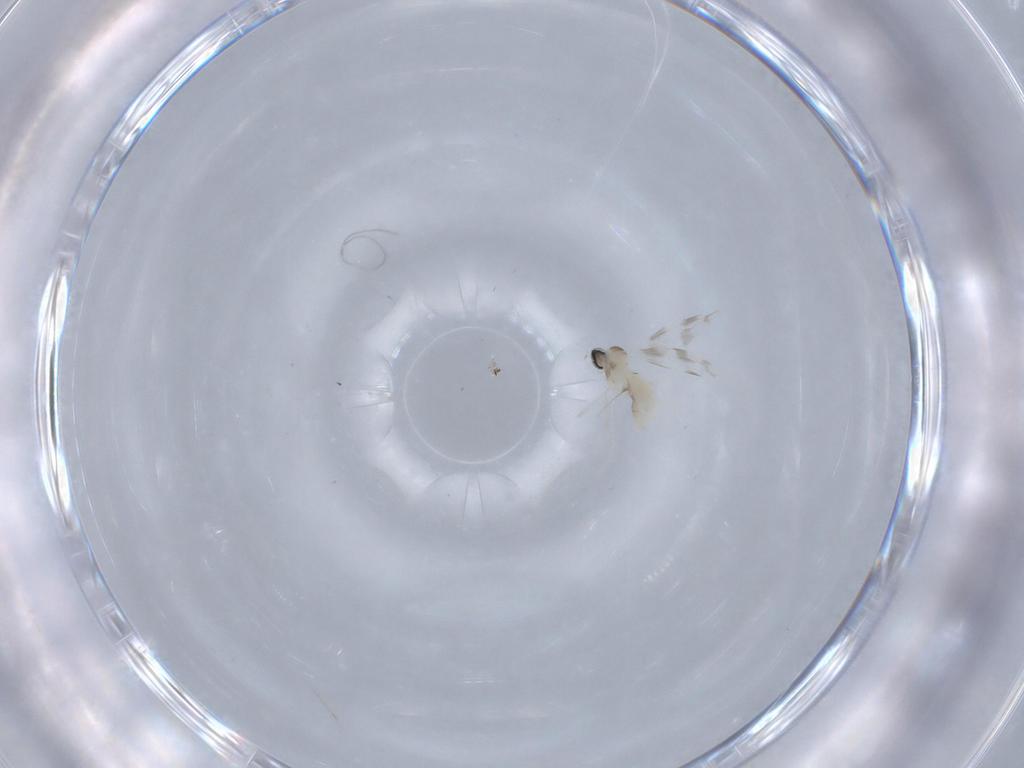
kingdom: Animalia
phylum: Arthropoda
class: Insecta
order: Diptera
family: Cecidomyiidae
